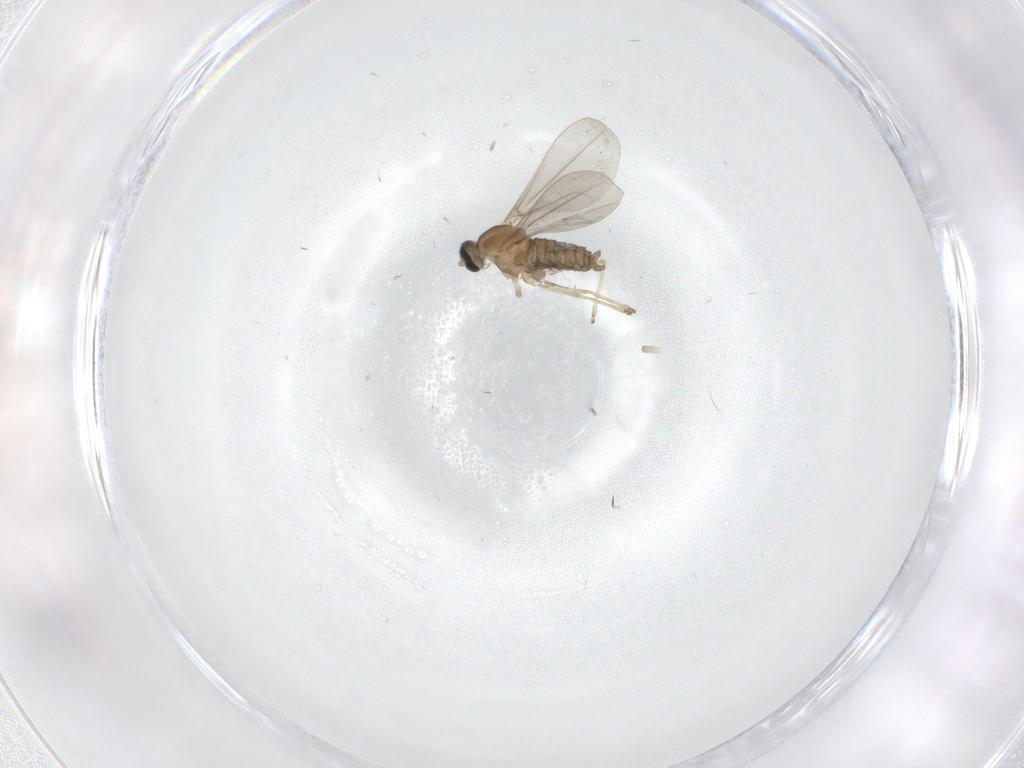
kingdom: Animalia
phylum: Arthropoda
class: Insecta
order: Diptera
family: Cecidomyiidae
